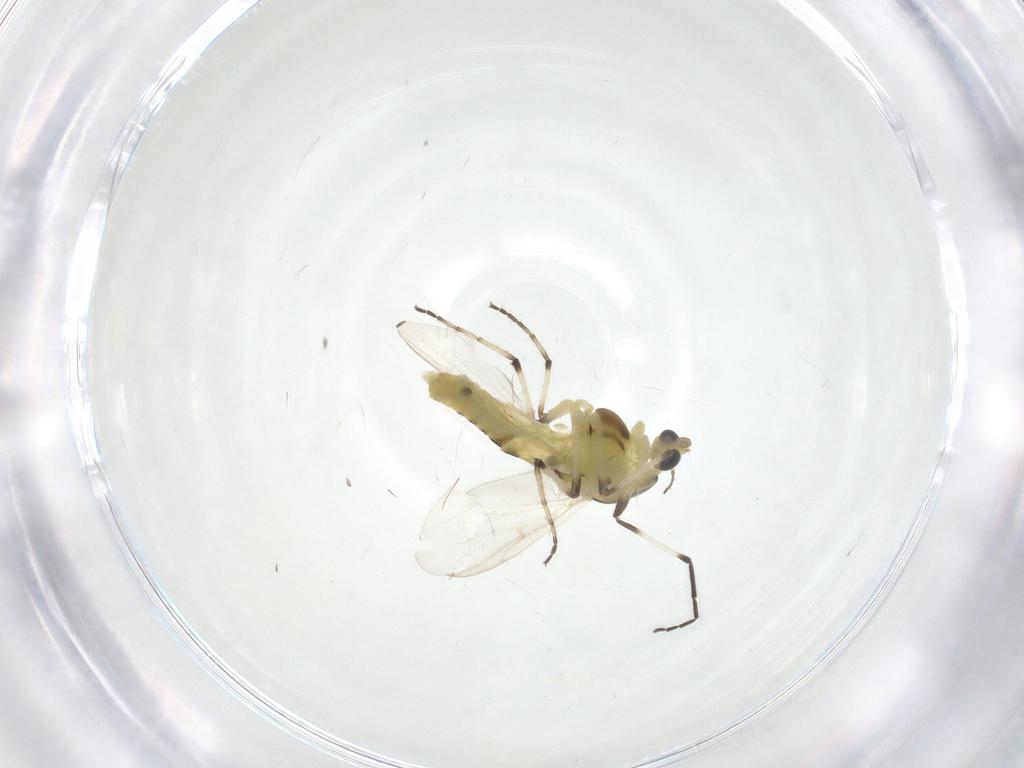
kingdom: Animalia
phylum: Arthropoda
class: Insecta
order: Diptera
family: Chironomidae
